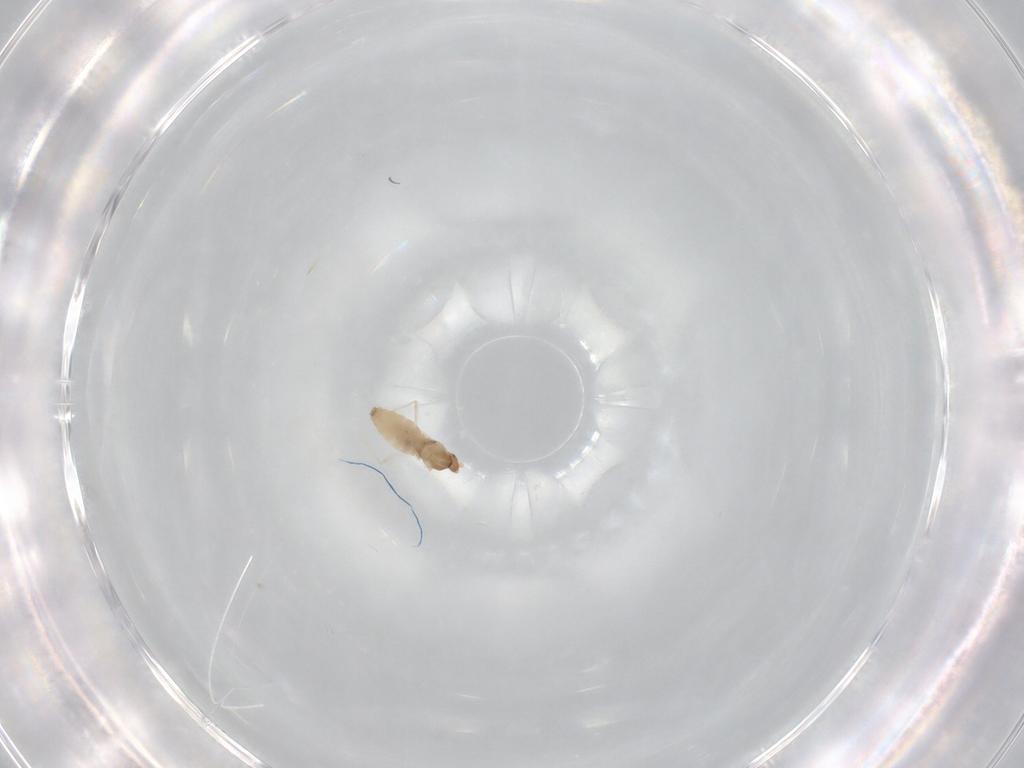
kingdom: Animalia
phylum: Arthropoda
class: Insecta
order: Diptera
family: Cecidomyiidae
